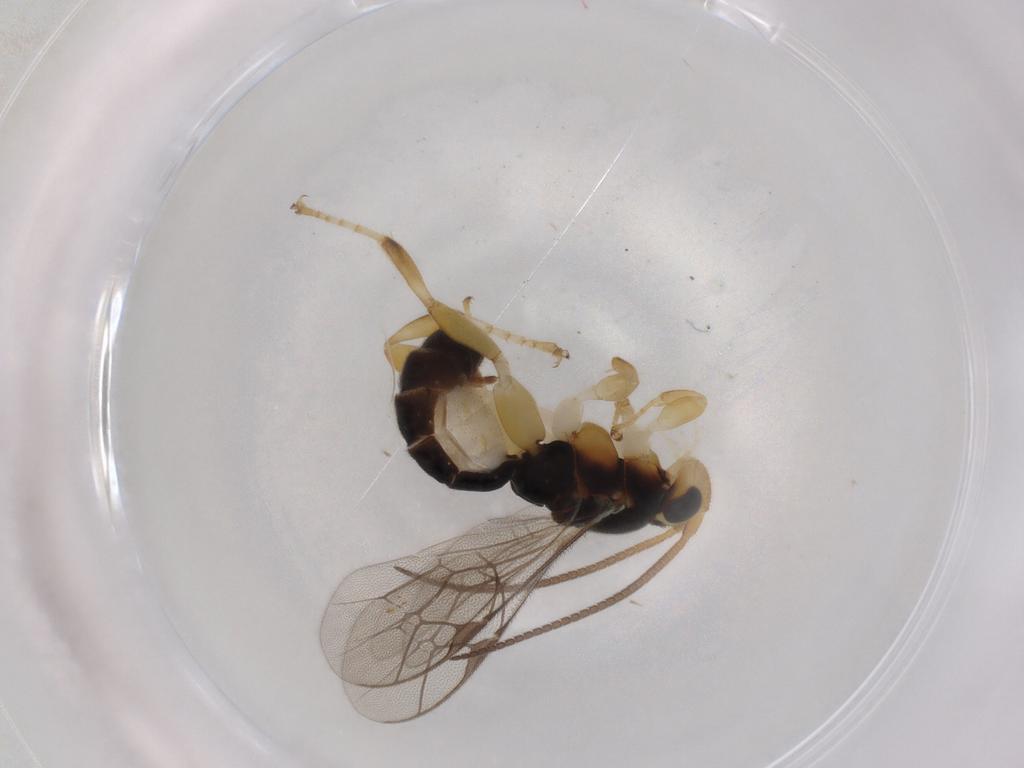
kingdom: Animalia
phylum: Arthropoda
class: Insecta
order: Hymenoptera
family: Ichneumonidae
